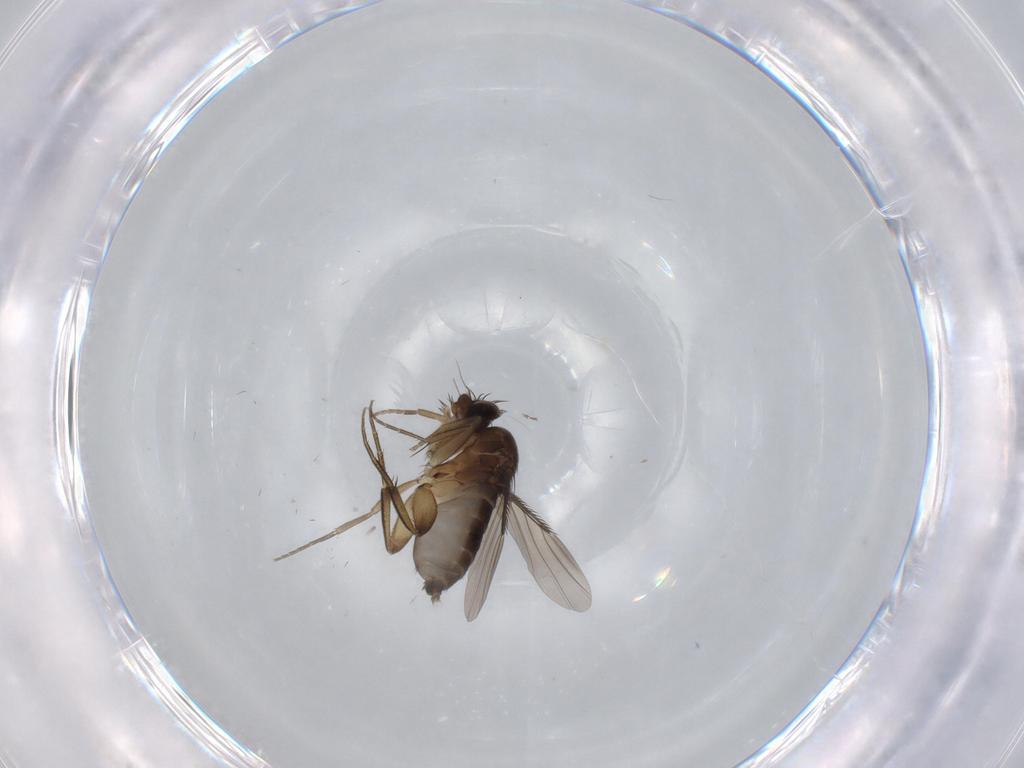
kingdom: Animalia
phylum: Arthropoda
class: Insecta
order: Diptera
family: Phoridae
